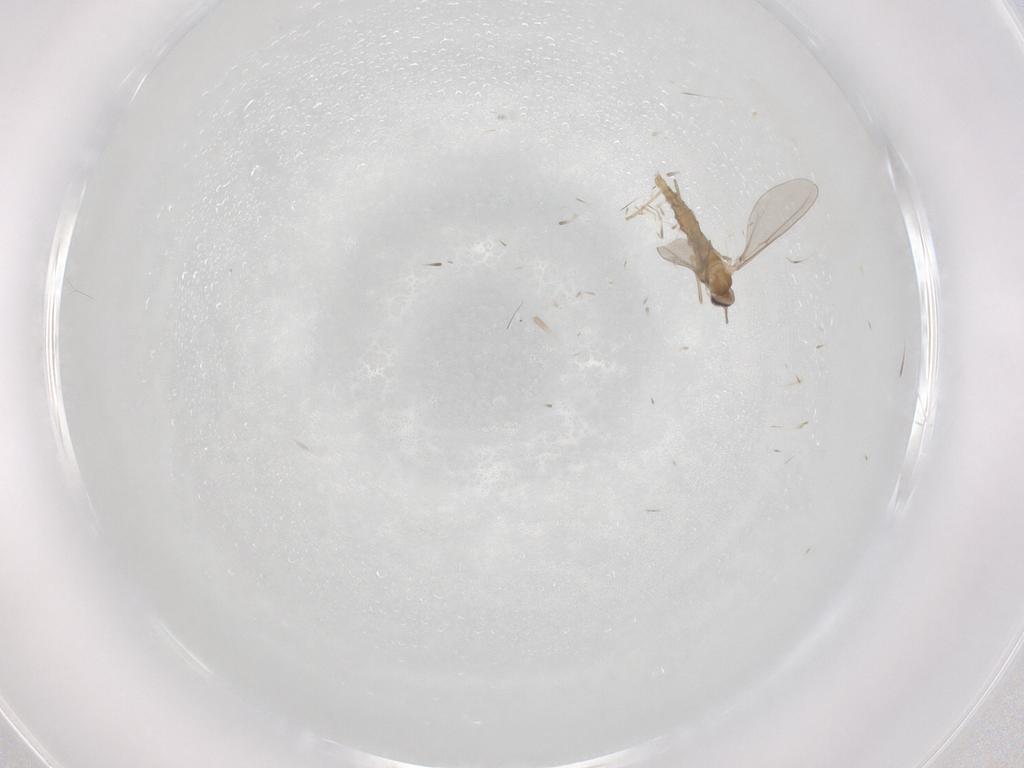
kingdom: Animalia
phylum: Arthropoda
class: Insecta
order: Diptera
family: Cecidomyiidae
